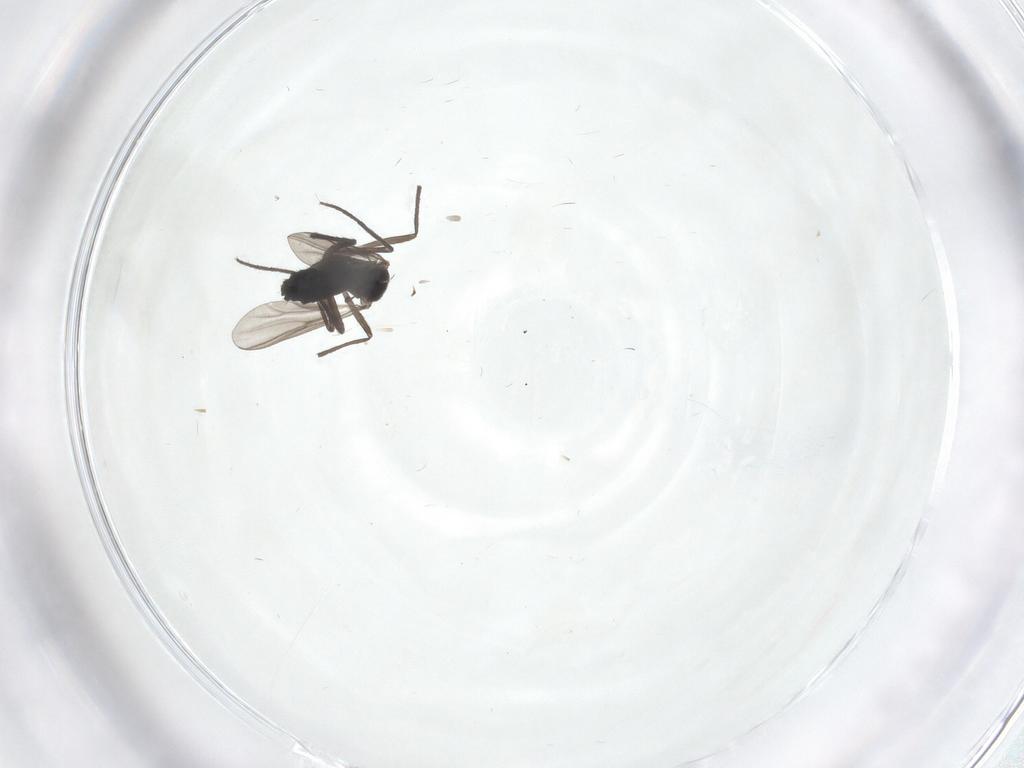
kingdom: Animalia
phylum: Arthropoda
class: Insecta
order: Diptera
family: Chironomidae
